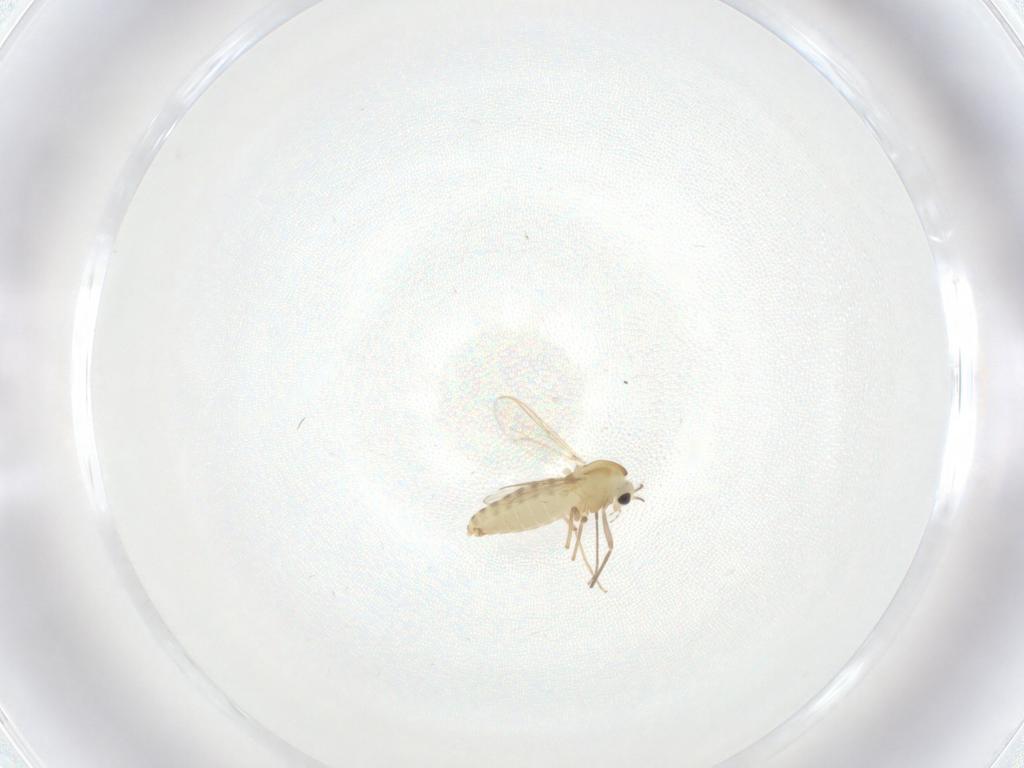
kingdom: Animalia
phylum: Arthropoda
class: Insecta
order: Diptera
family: Chironomidae
